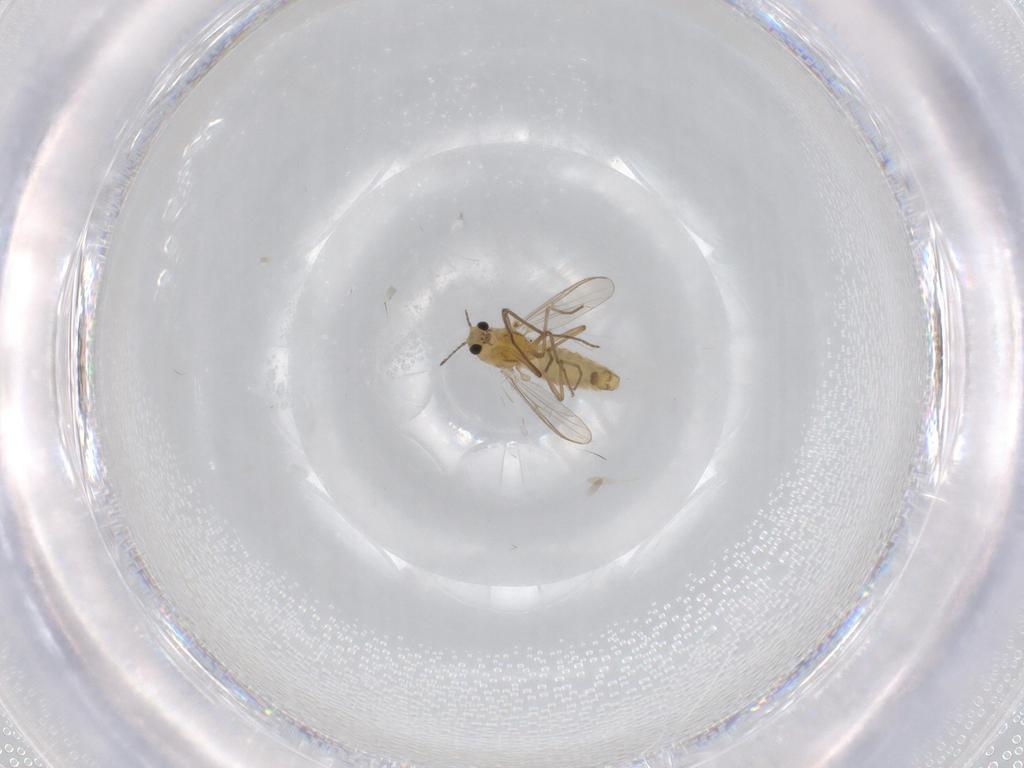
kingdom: Animalia
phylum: Arthropoda
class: Insecta
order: Diptera
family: Chironomidae
